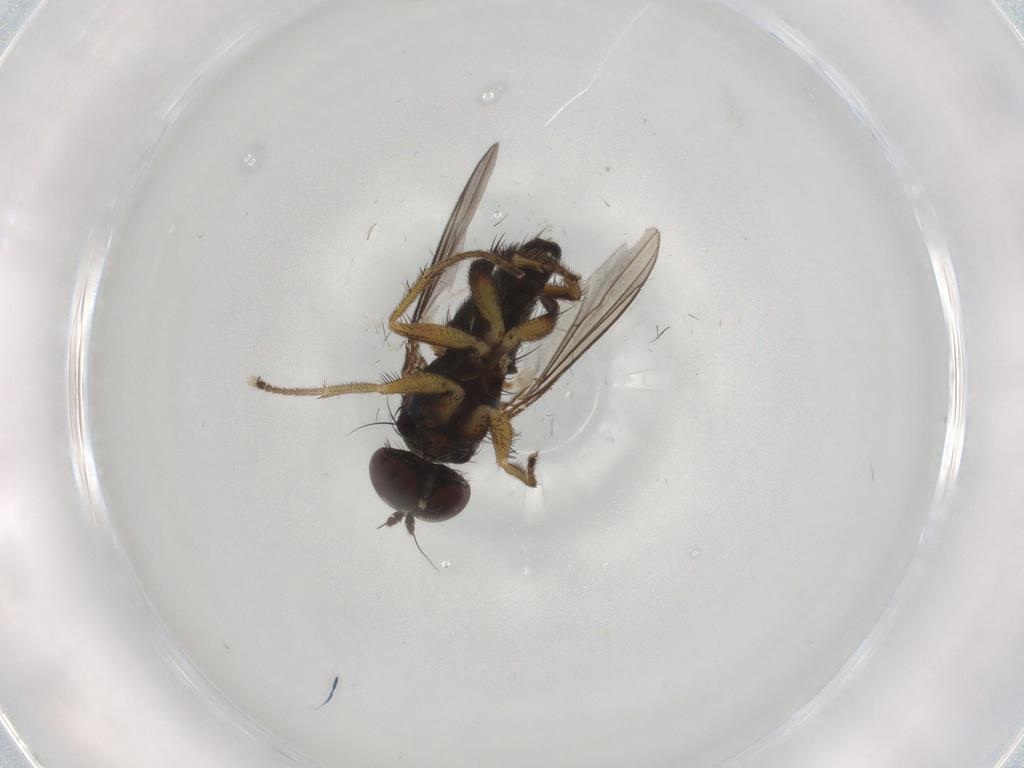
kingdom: Animalia
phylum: Arthropoda
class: Insecta
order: Diptera
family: Dolichopodidae
